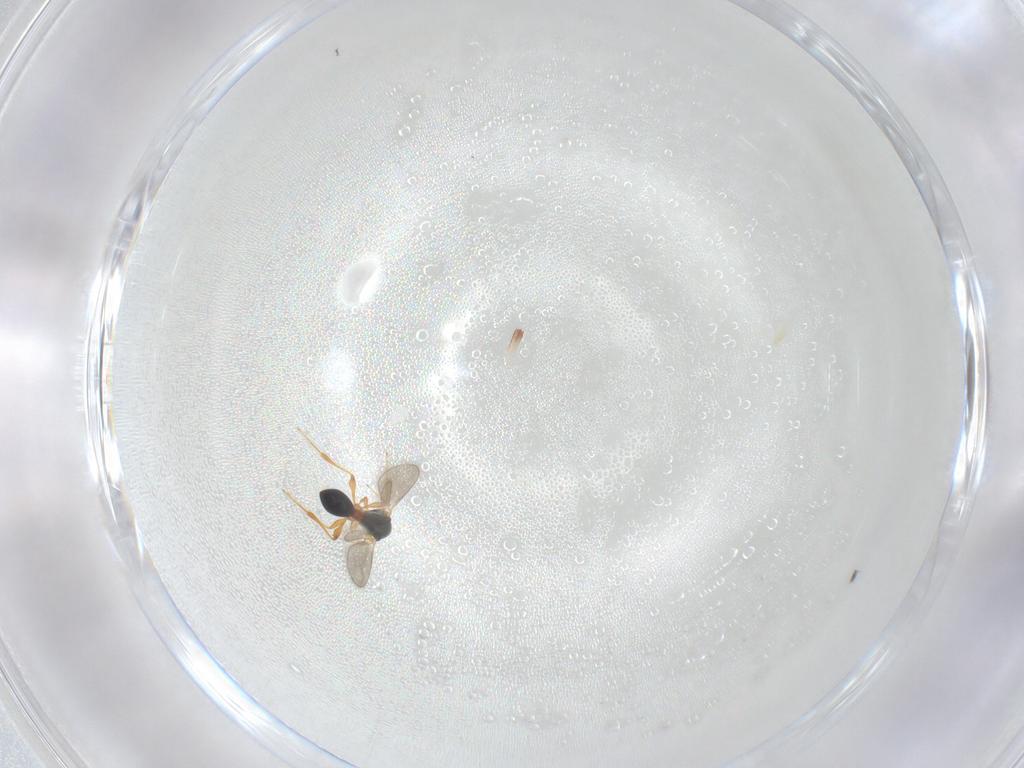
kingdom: Animalia
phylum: Arthropoda
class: Insecta
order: Hymenoptera
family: Platygastridae
